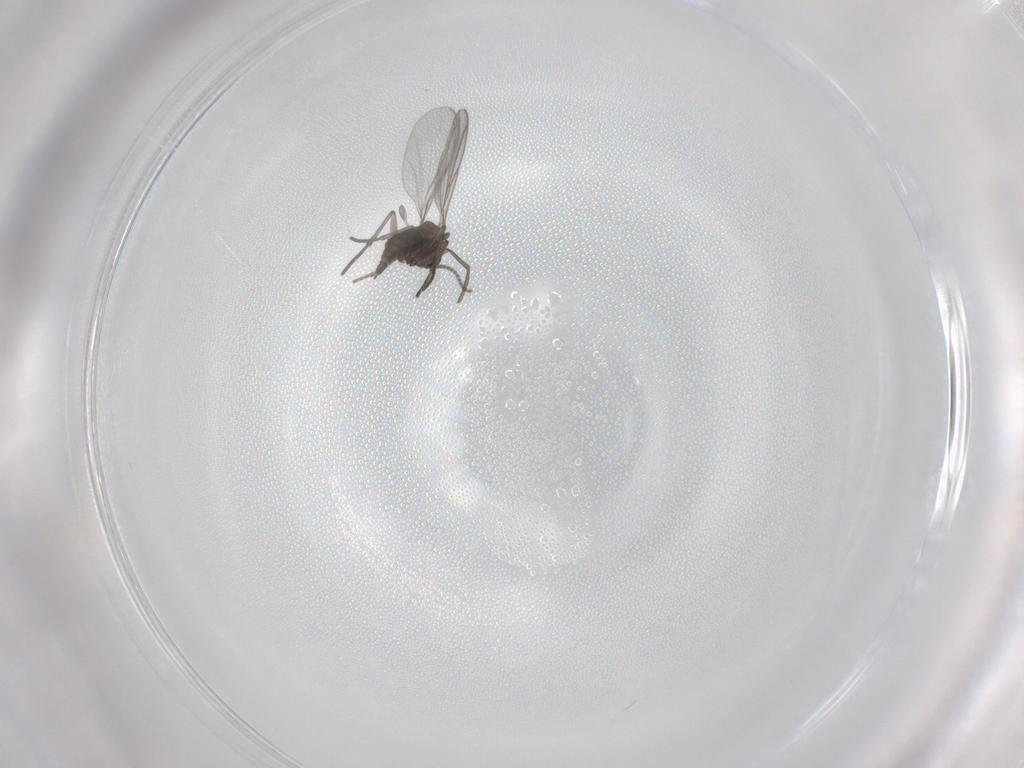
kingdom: Animalia
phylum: Arthropoda
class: Insecta
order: Diptera
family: Drosophilidae
